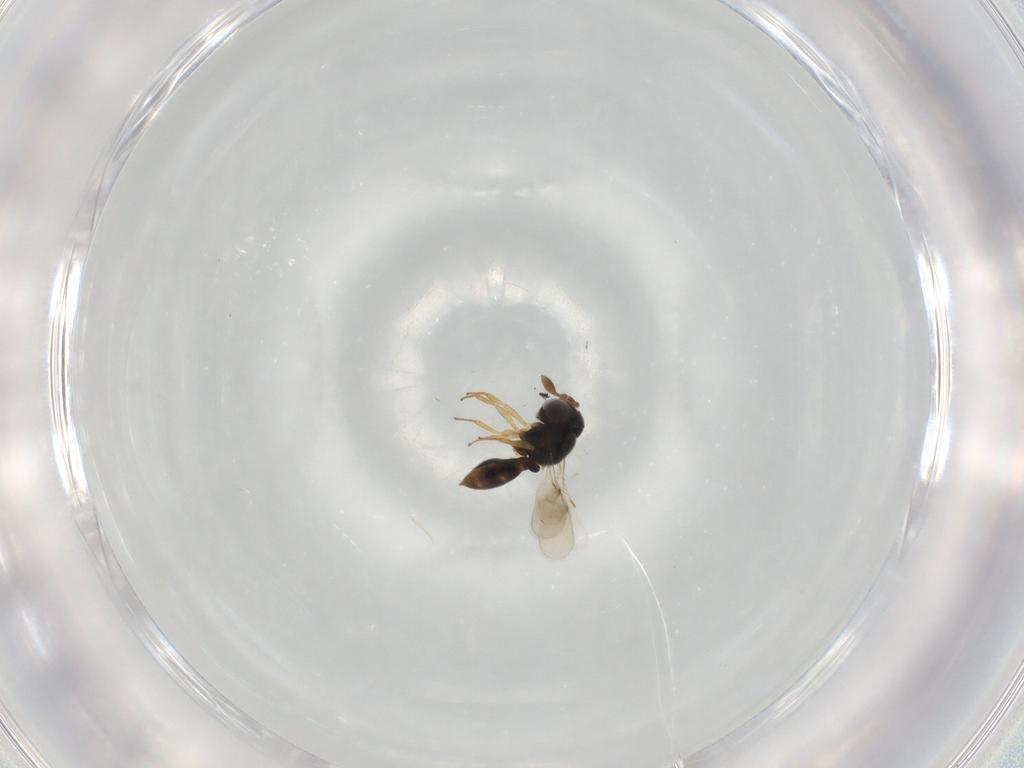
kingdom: Animalia
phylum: Arthropoda
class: Insecta
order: Hymenoptera
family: Scelionidae
